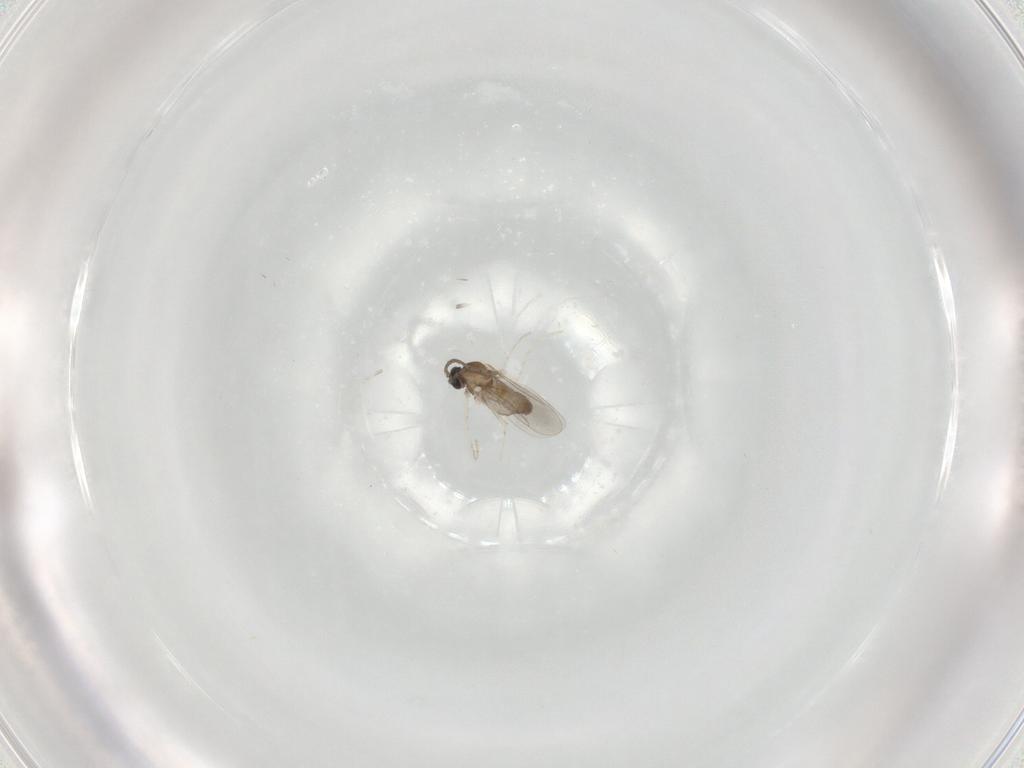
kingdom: Animalia
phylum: Arthropoda
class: Insecta
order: Diptera
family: Cecidomyiidae
